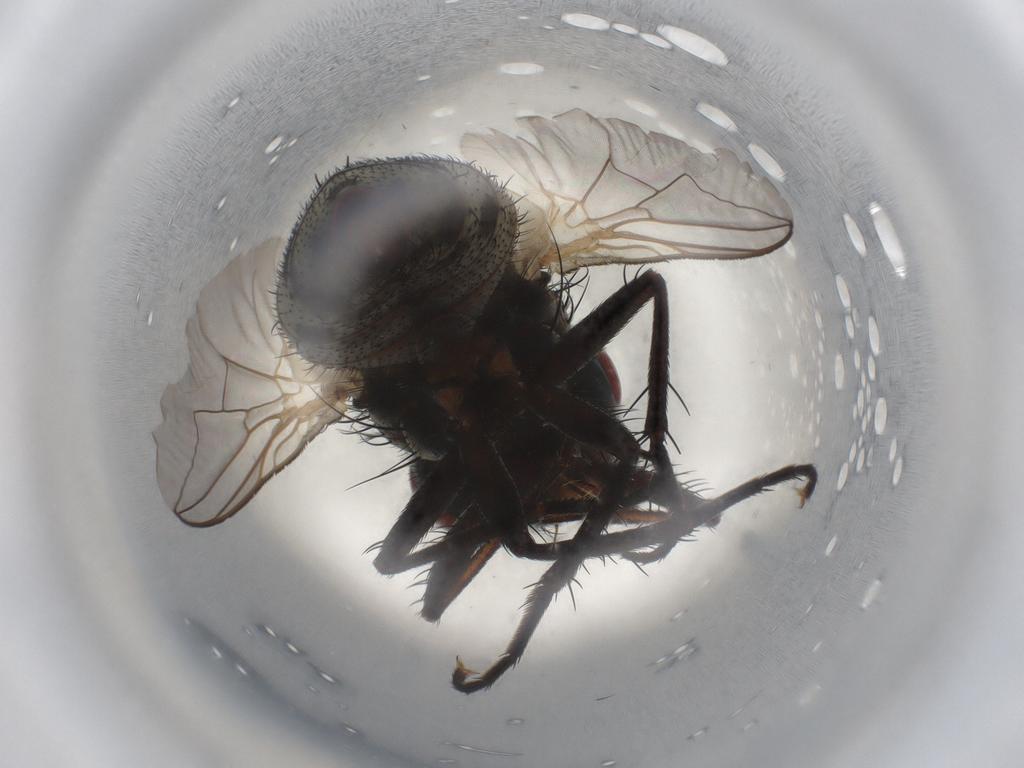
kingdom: Animalia
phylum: Arthropoda
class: Insecta
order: Diptera
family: Sarcophagidae
